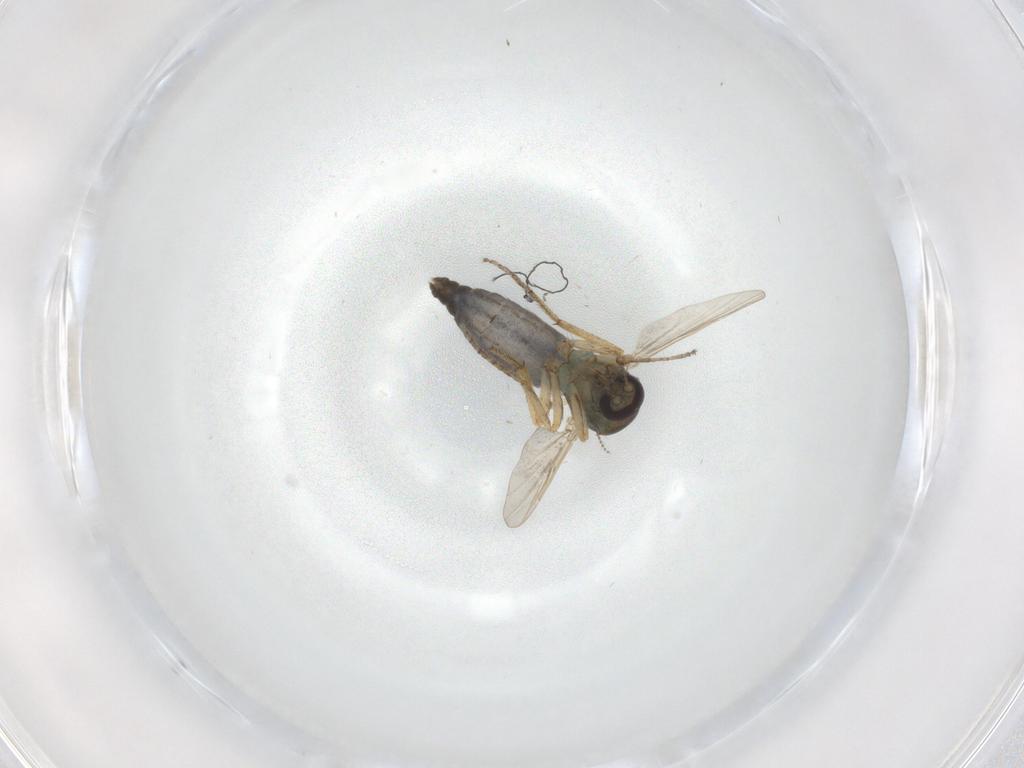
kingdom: Animalia
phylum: Arthropoda
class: Insecta
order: Diptera
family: Ceratopogonidae
